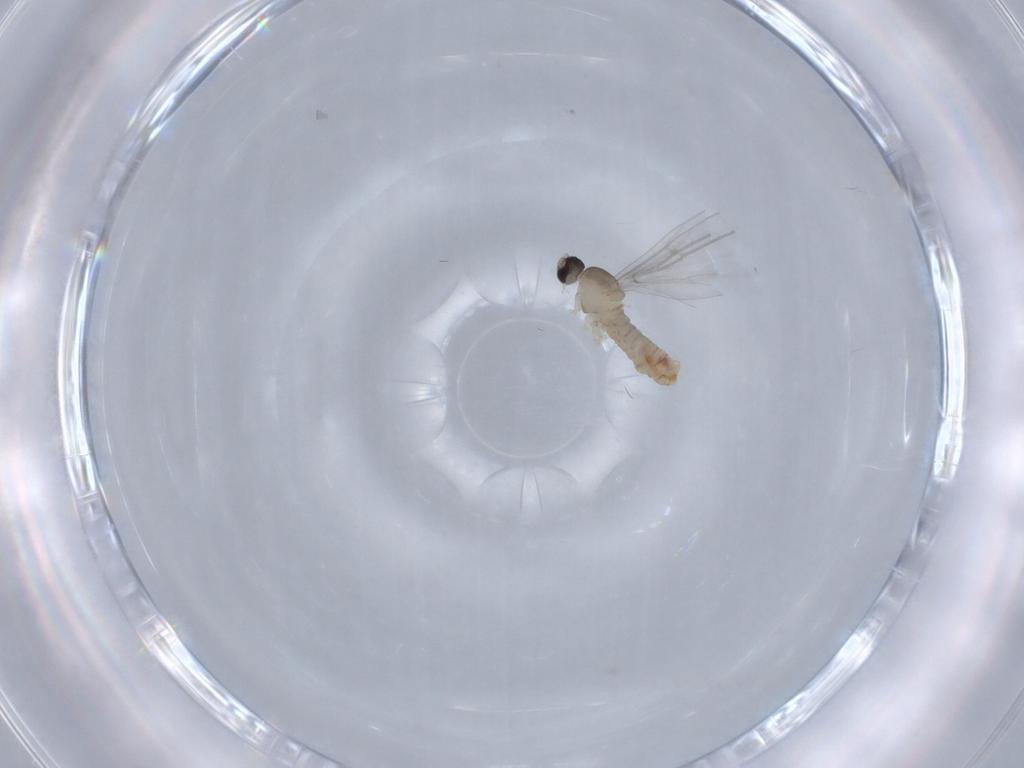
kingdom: Animalia
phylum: Arthropoda
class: Insecta
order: Diptera
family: Cecidomyiidae
